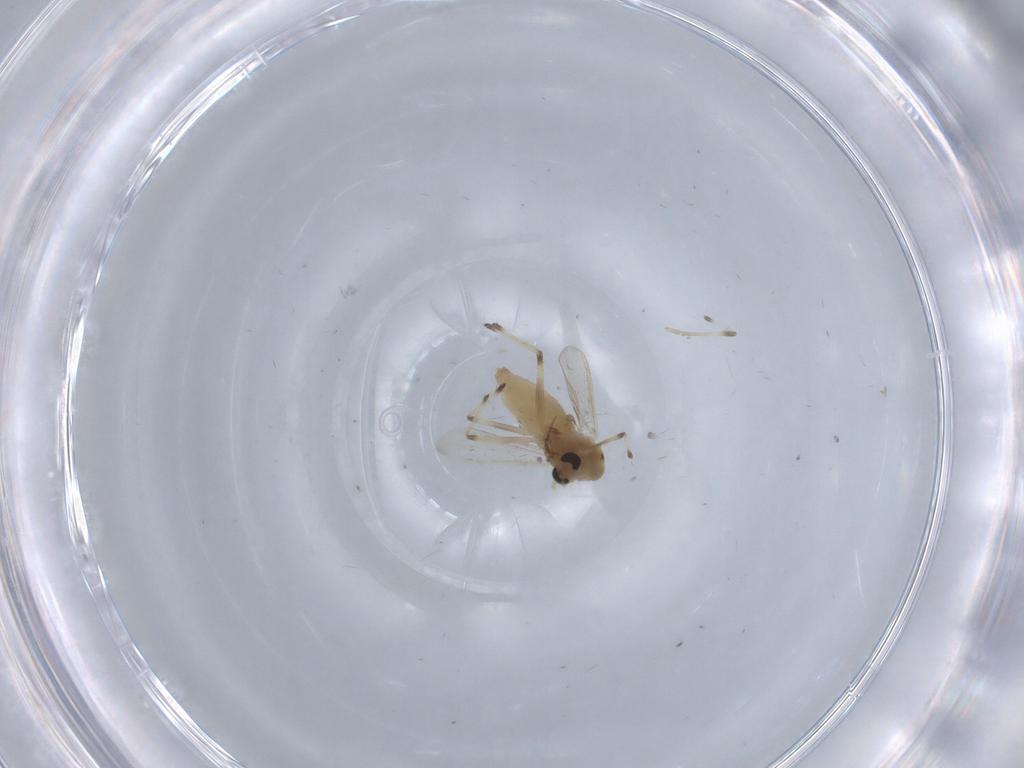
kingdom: Animalia
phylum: Arthropoda
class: Insecta
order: Diptera
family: Chironomidae
